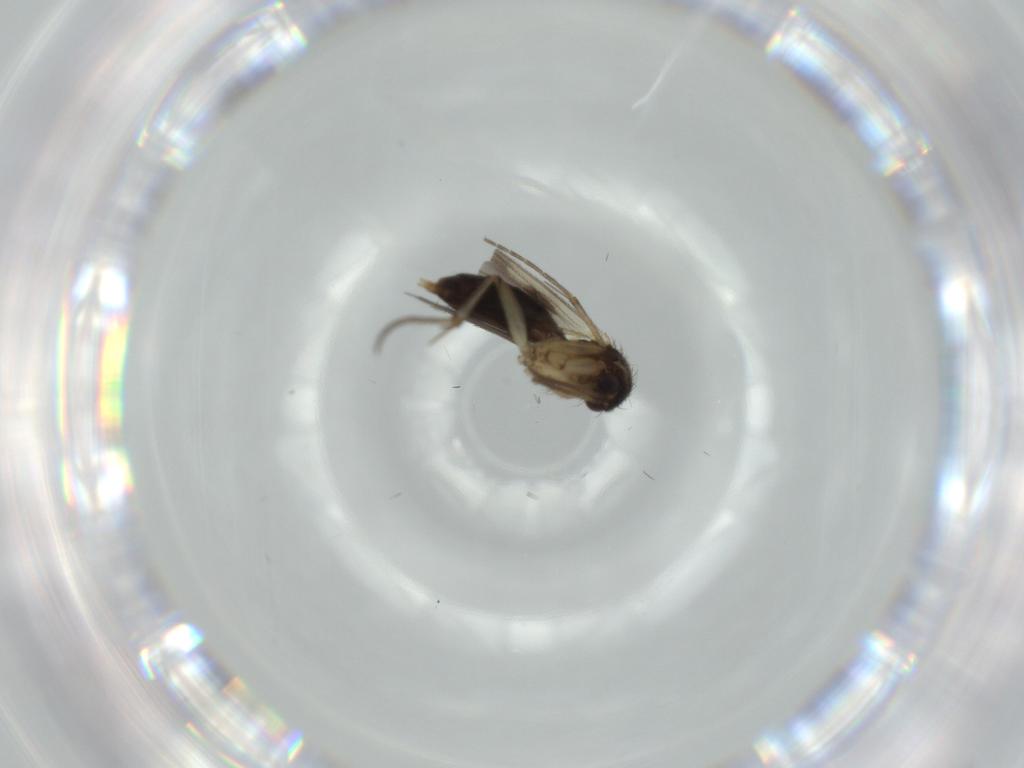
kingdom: Animalia
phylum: Arthropoda
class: Insecta
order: Diptera
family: Sciaridae
